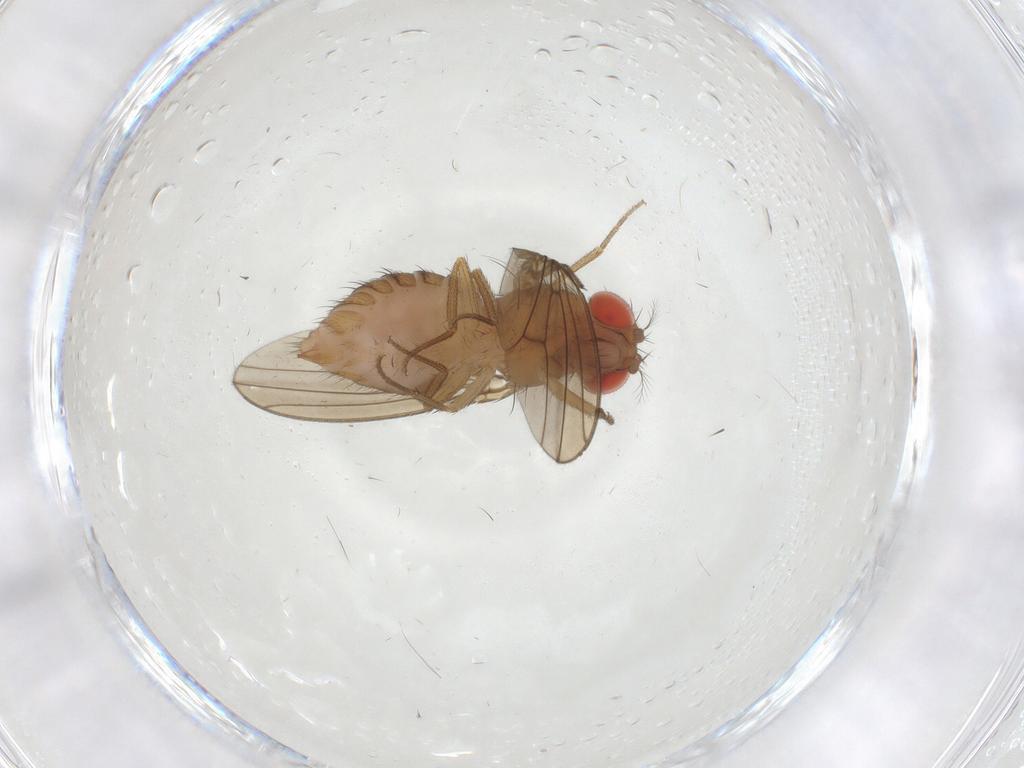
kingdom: Animalia
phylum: Arthropoda
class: Insecta
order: Diptera
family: Drosophilidae
